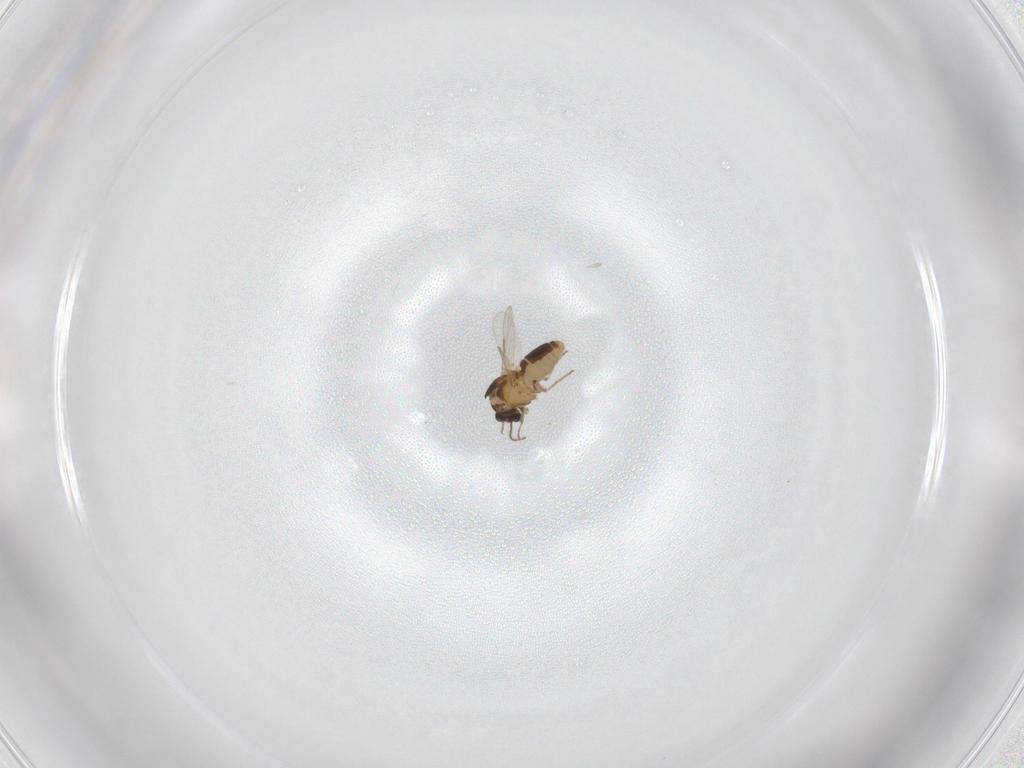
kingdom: Animalia
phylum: Arthropoda
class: Insecta
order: Diptera
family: Ceratopogonidae
